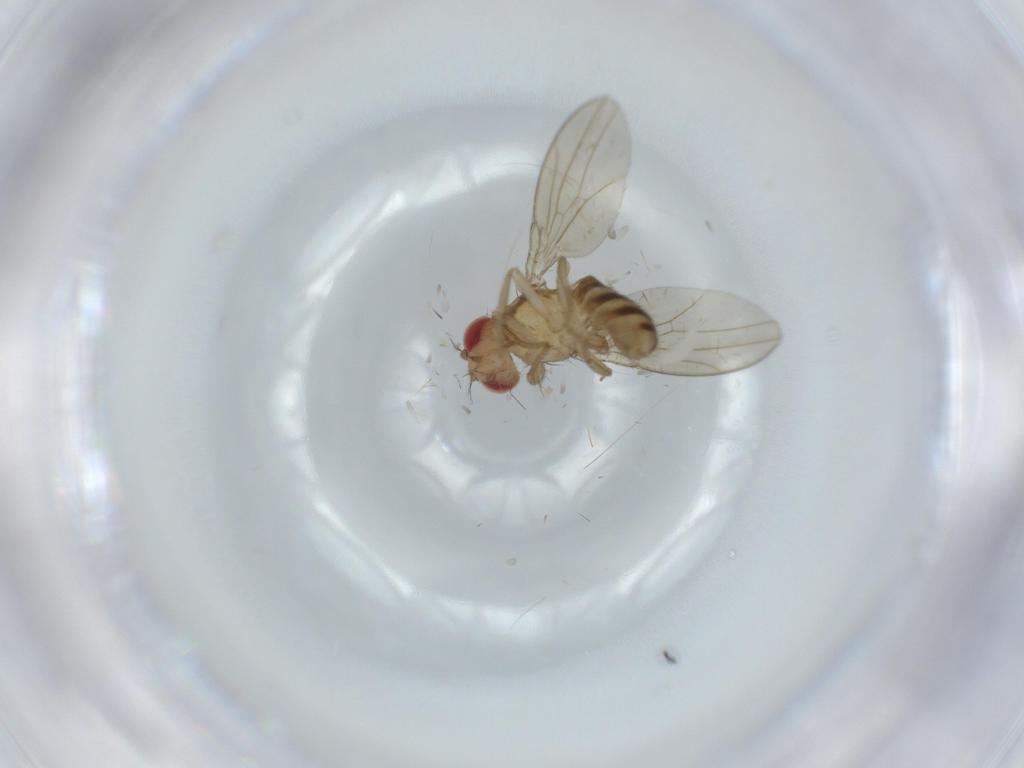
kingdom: Animalia
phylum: Arthropoda
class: Insecta
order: Diptera
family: Drosophilidae
